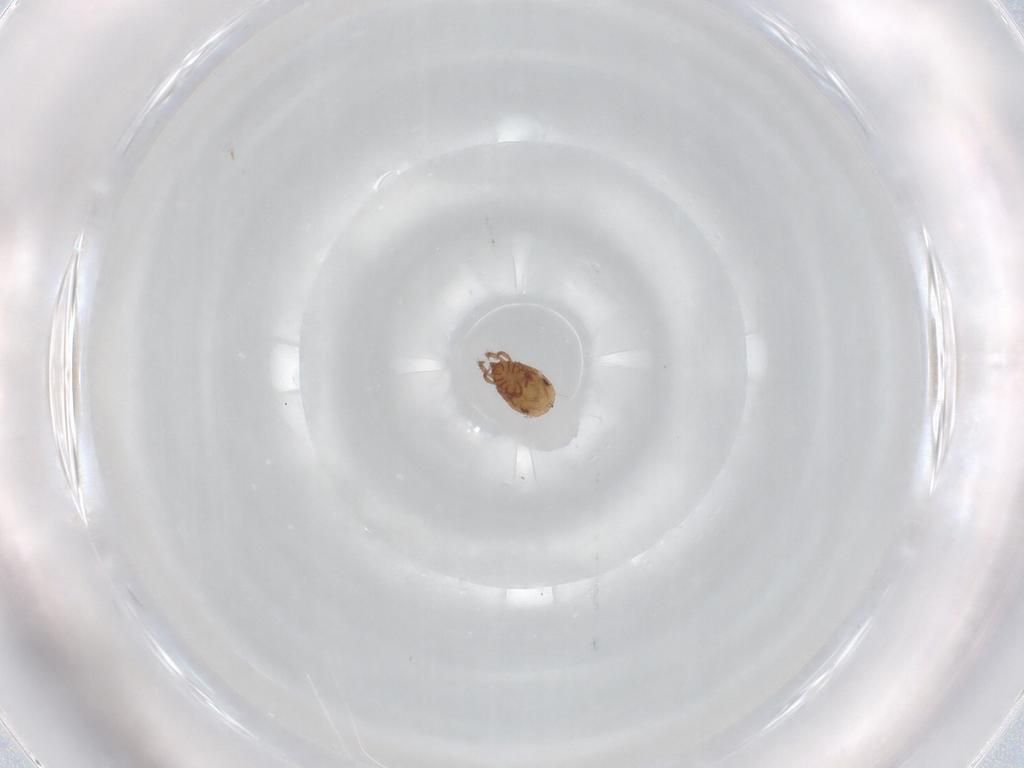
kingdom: Animalia
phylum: Arthropoda
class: Arachnida
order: Sarcoptiformes
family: Phenopelopidae
